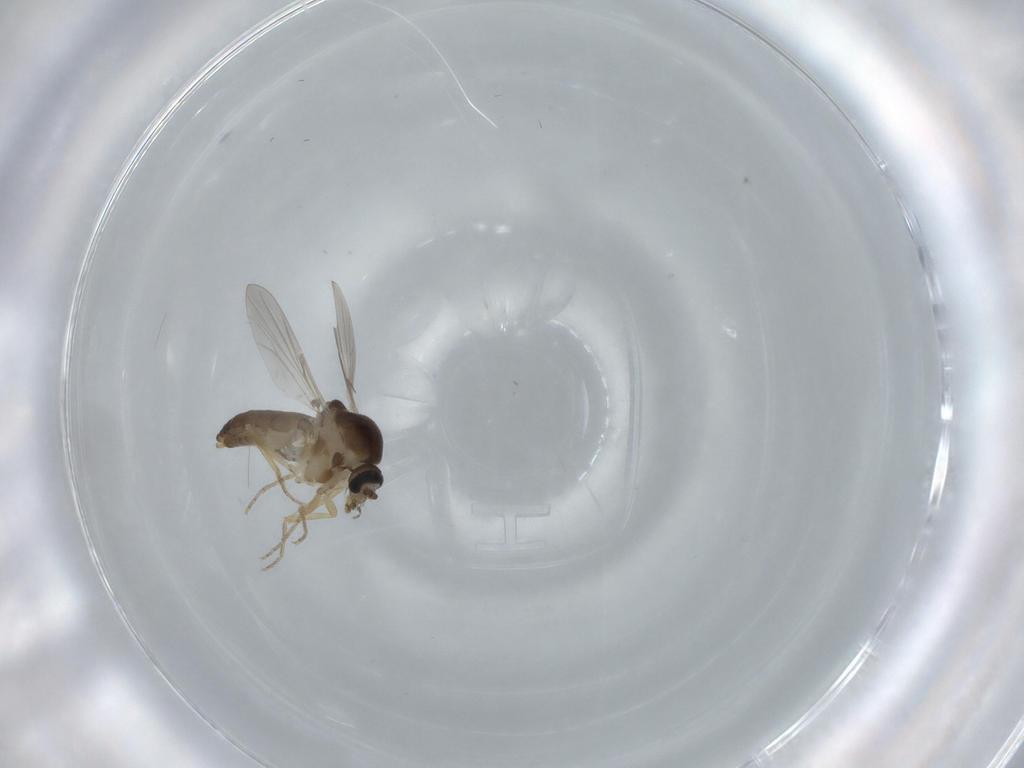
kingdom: Animalia
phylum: Arthropoda
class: Insecta
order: Diptera
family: Ceratopogonidae
